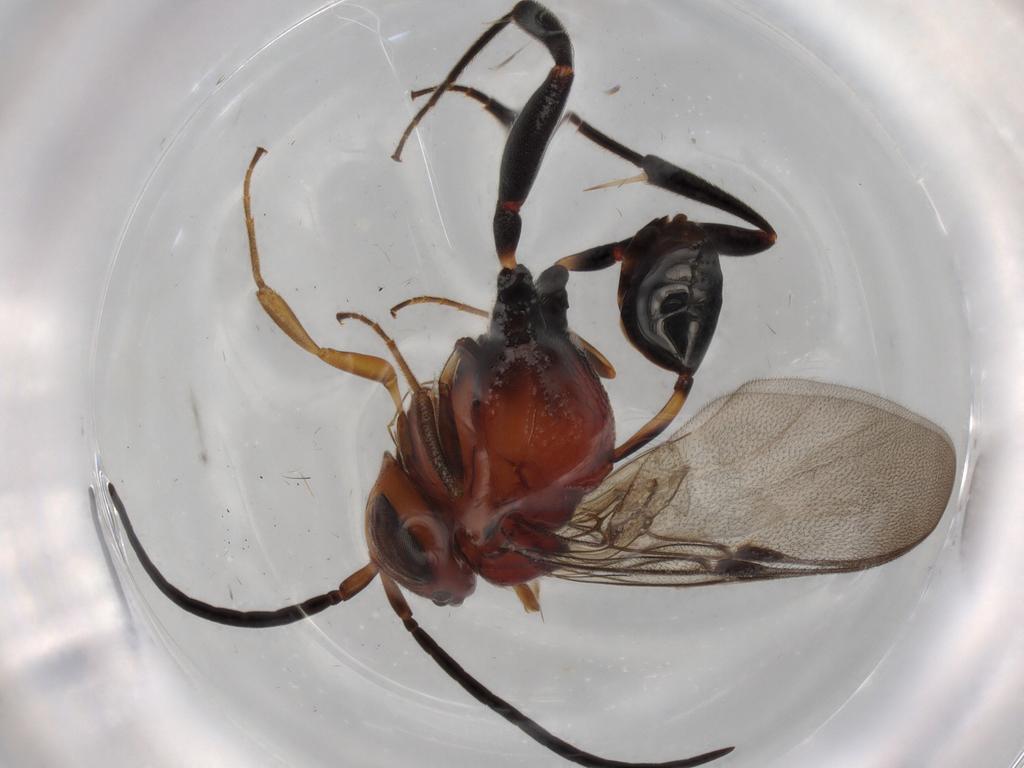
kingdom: Animalia
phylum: Arthropoda
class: Insecta
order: Hymenoptera
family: Evaniidae
